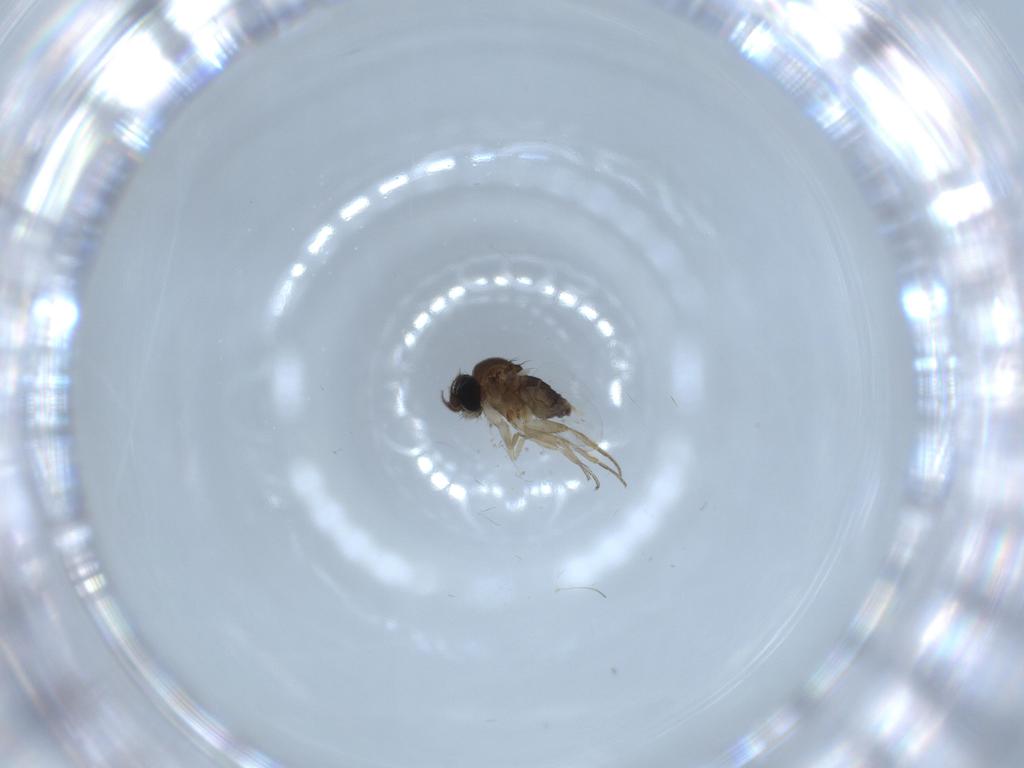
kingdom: Animalia
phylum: Arthropoda
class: Insecta
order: Diptera
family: Phoridae
